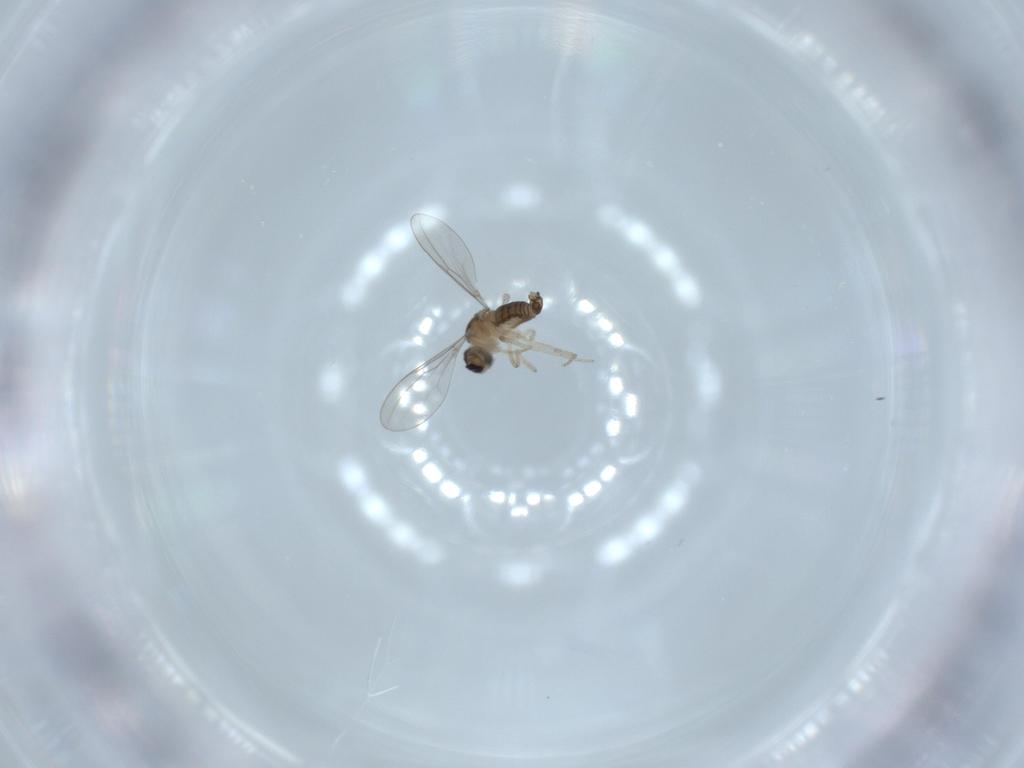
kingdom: Animalia
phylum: Arthropoda
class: Insecta
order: Diptera
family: Cecidomyiidae
